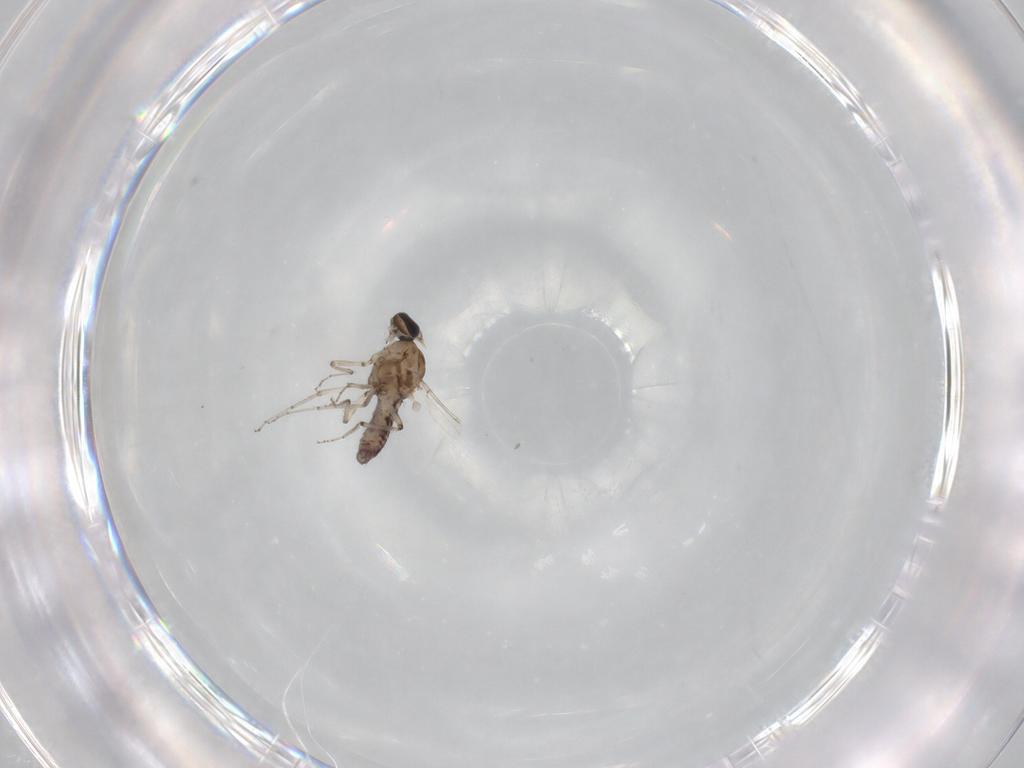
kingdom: Animalia
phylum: Arthropoda
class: Insecta
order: Diptera
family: Ceratopogonidae
